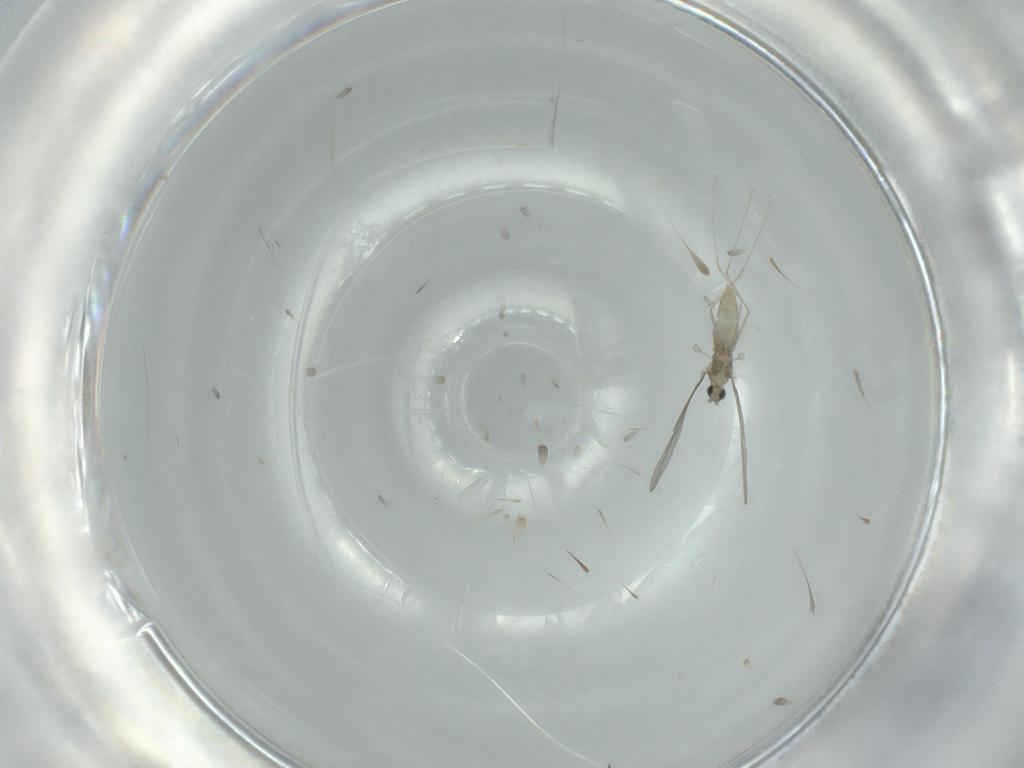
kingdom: Animalia
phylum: Arthropoda
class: Insecta
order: Diptera
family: Cecidomyiidae
